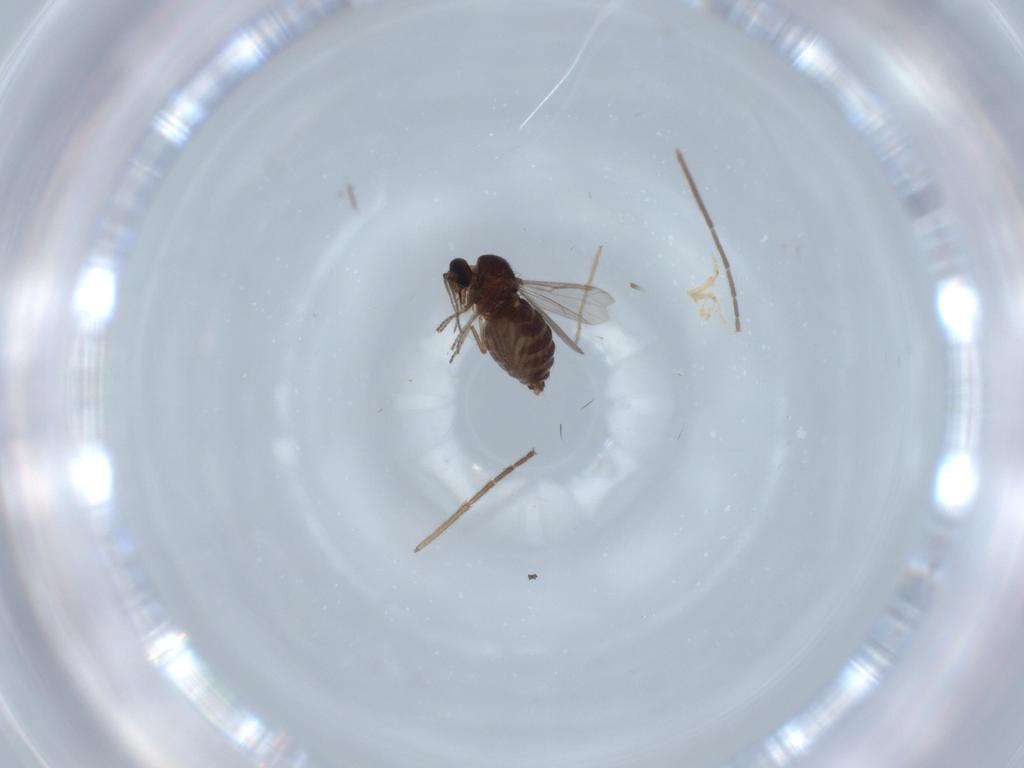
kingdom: Animalia
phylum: Arthropoda
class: Insecta
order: Diptera
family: Ceratopogonidae
